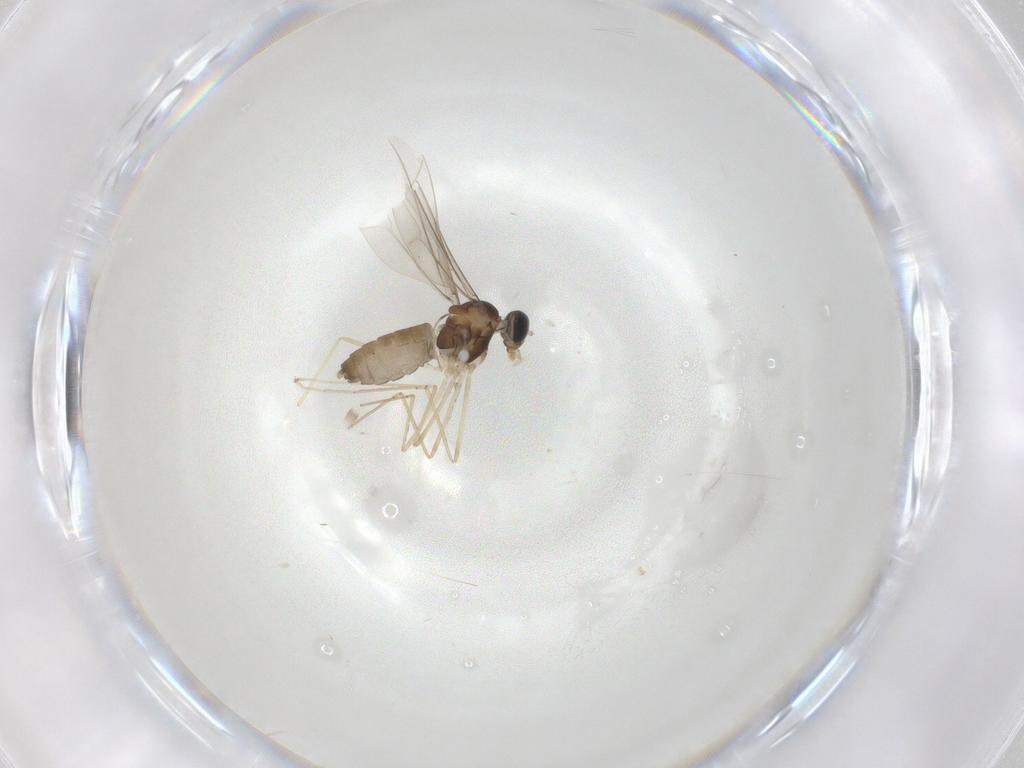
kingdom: Animalia
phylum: Arthropoda
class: Insecta
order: Diptera
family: Cecidomyiidae
